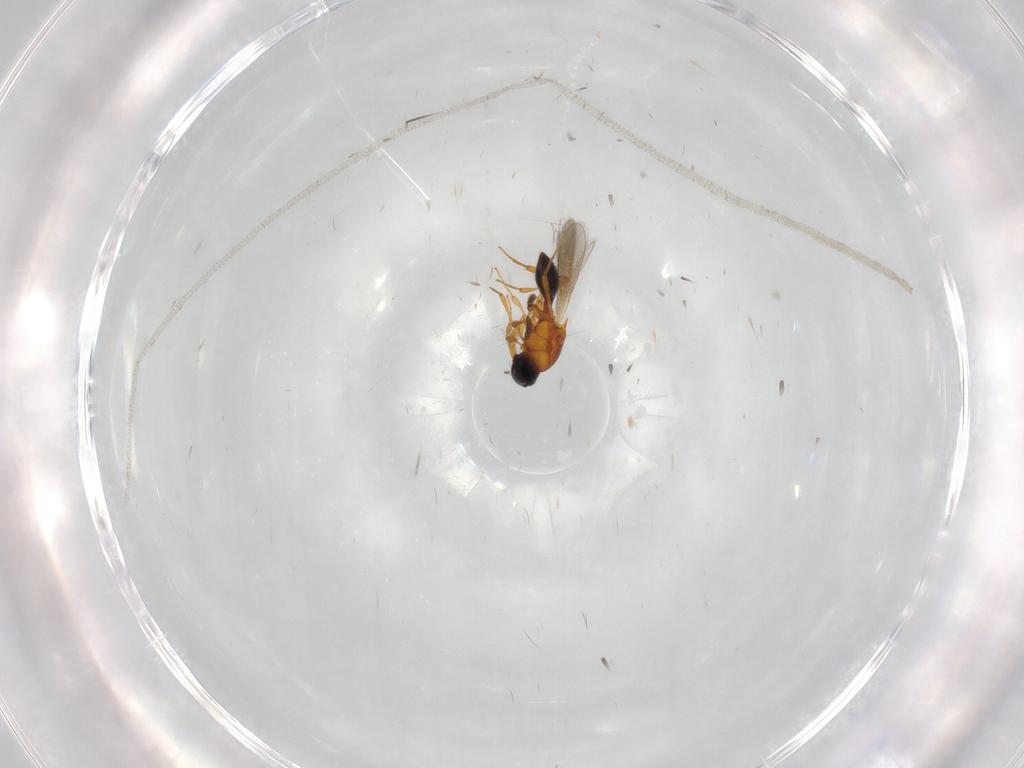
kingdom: Animalia
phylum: Arthropoda
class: Insecta
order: Hymenoptera
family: Platygastridae
